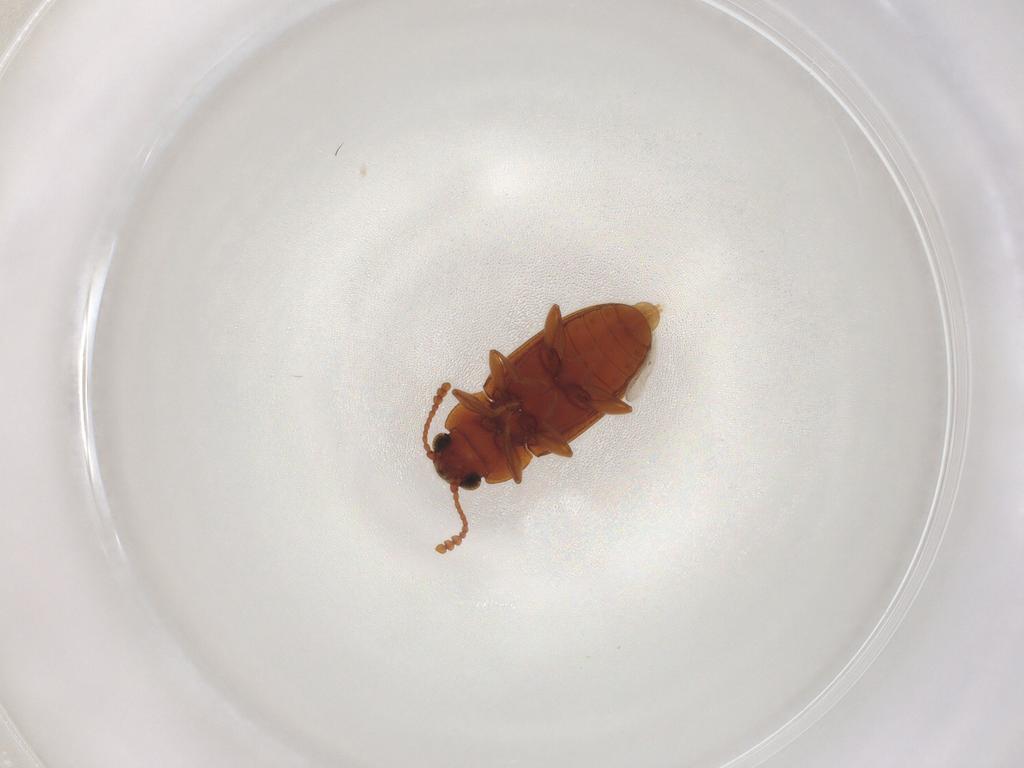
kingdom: Animalia
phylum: Arthropoda
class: Insecta
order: Coleoptera
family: Erotylidae
